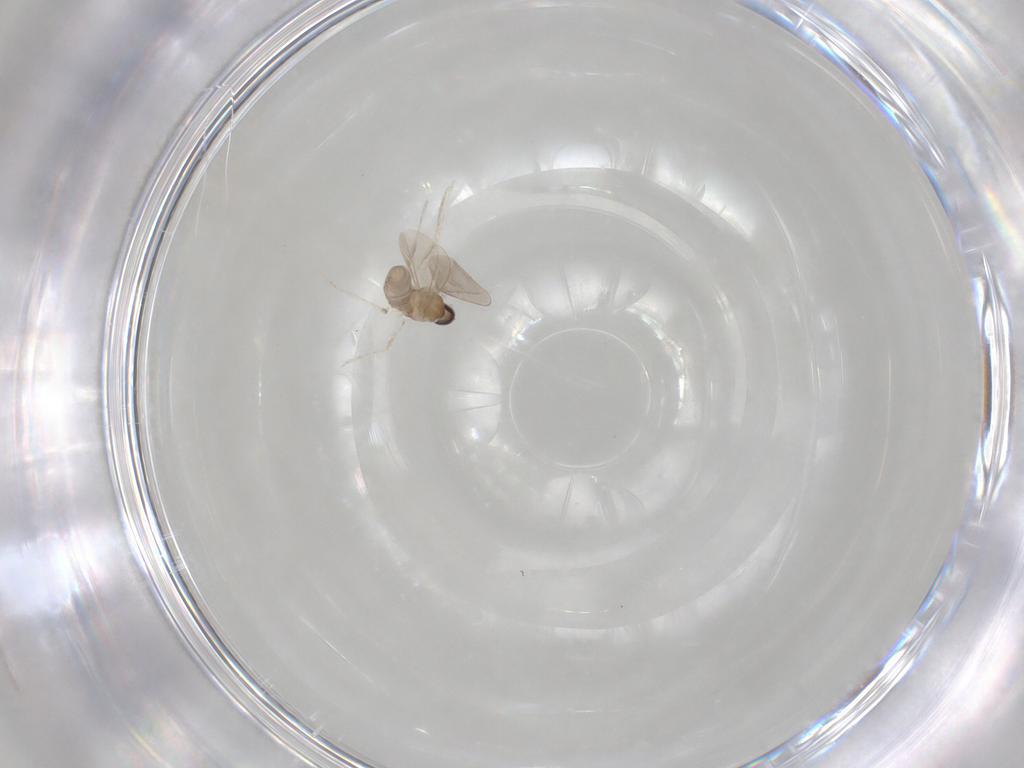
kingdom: Animalia
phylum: Arthropoda
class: Insecta
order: Diptera
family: Cecidomyiidae
